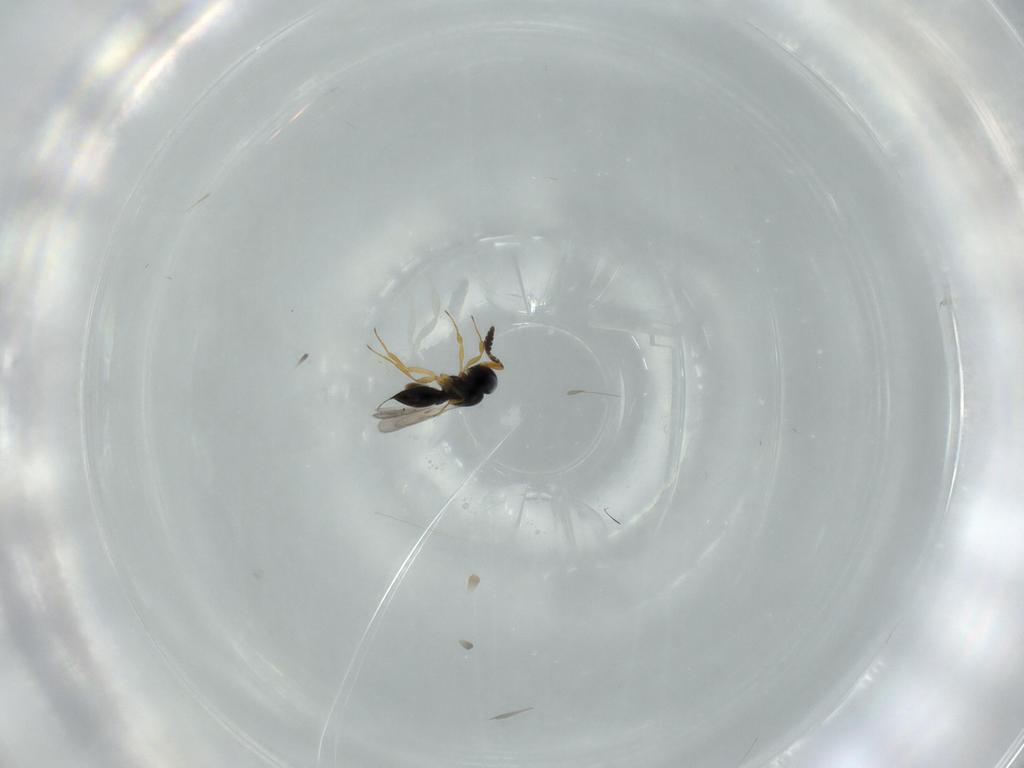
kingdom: Animalia
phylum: Arthropoda
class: Insecta
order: Hymenoptera
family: Scelionidae
